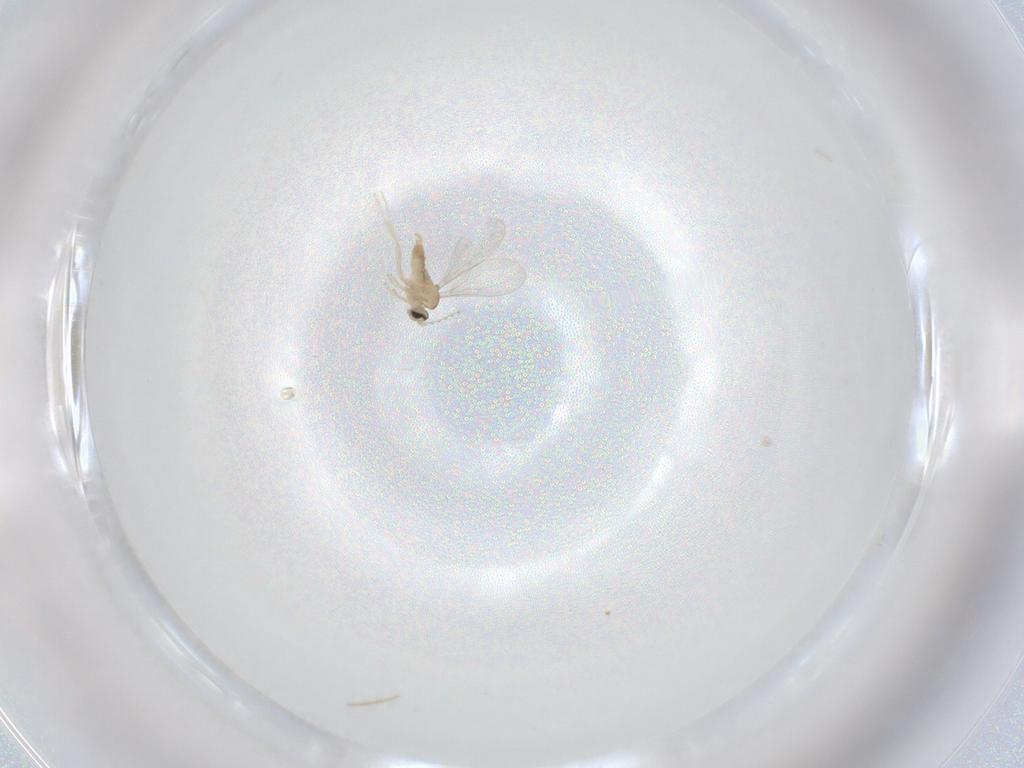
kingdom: Animalia
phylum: Arthropoda
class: Insecta
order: Diptera
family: Cecidomyiidae
